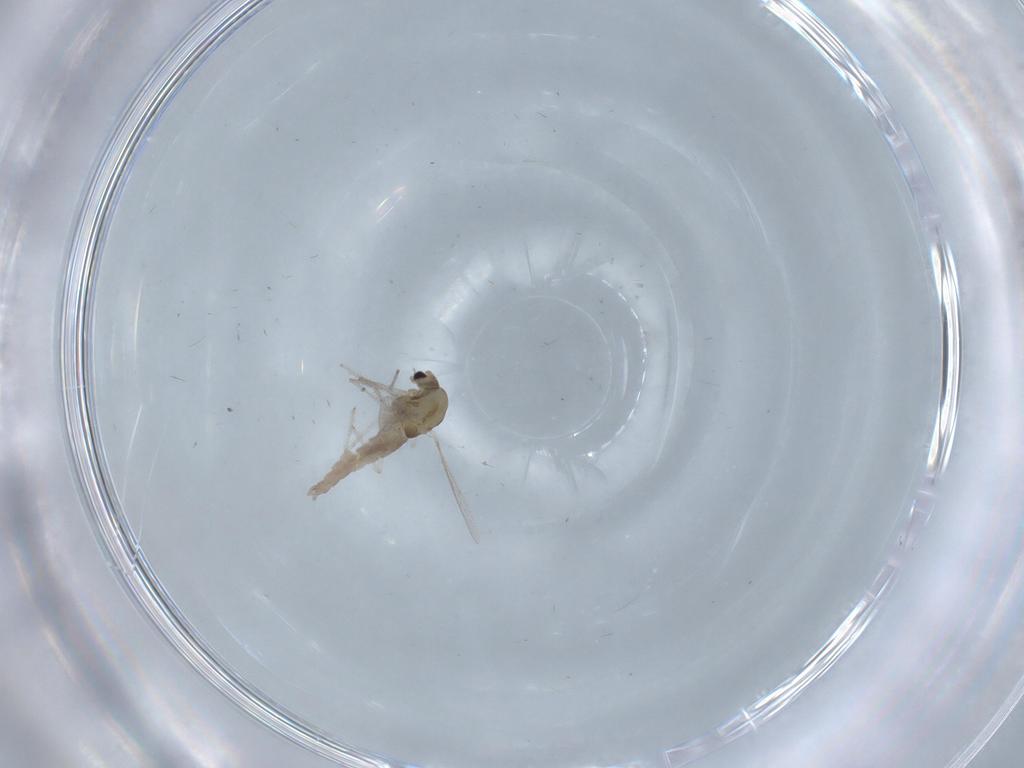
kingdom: Animalia
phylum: Arthropoda
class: Insecta
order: Diptera
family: Chironomidae
